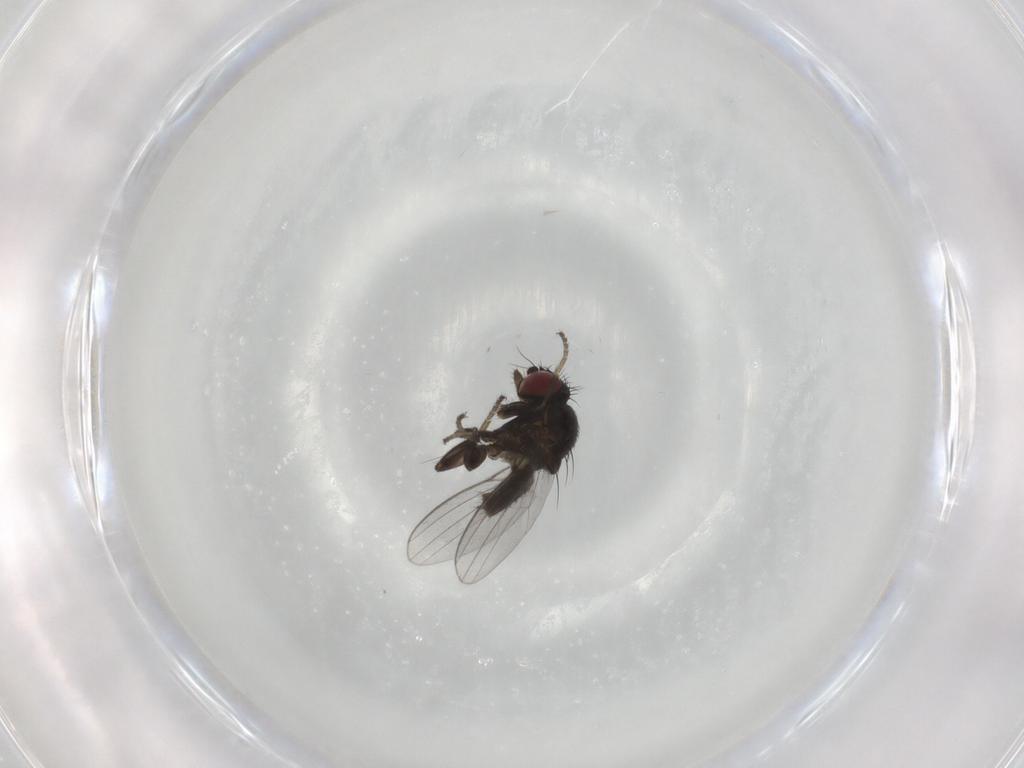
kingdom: Animalia
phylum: Arthropoda
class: Insecta
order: Diptera
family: Milichiidae
